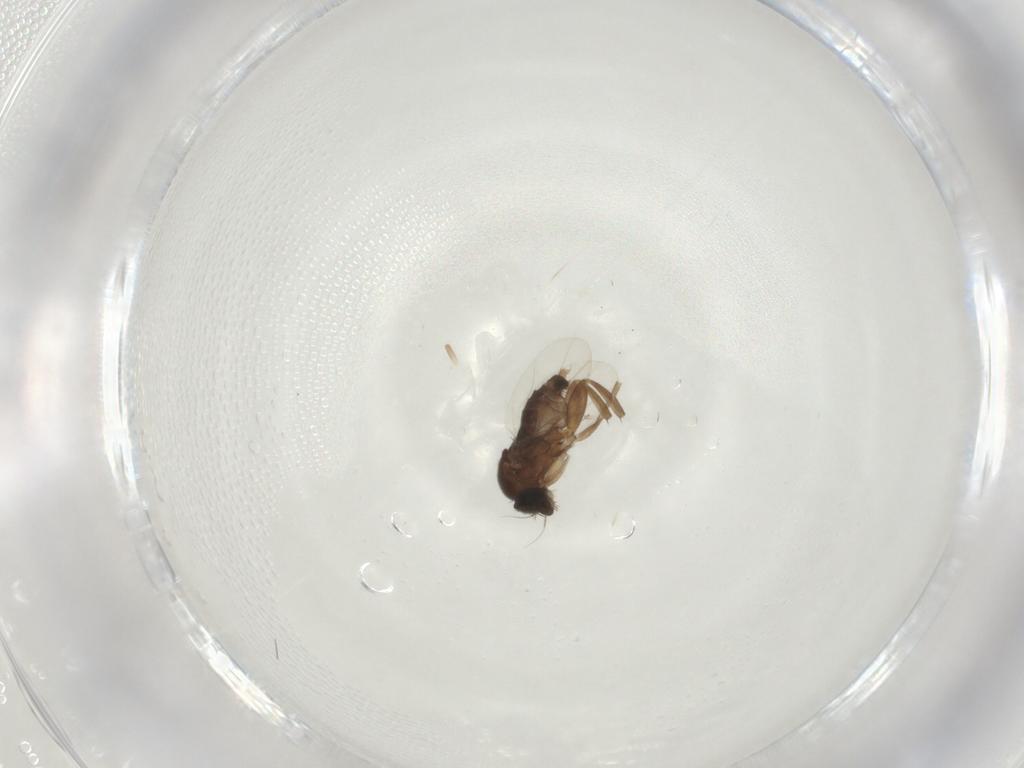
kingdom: Animalia
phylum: Arthropoda
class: Insecta
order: Diptera
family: Phoridae
